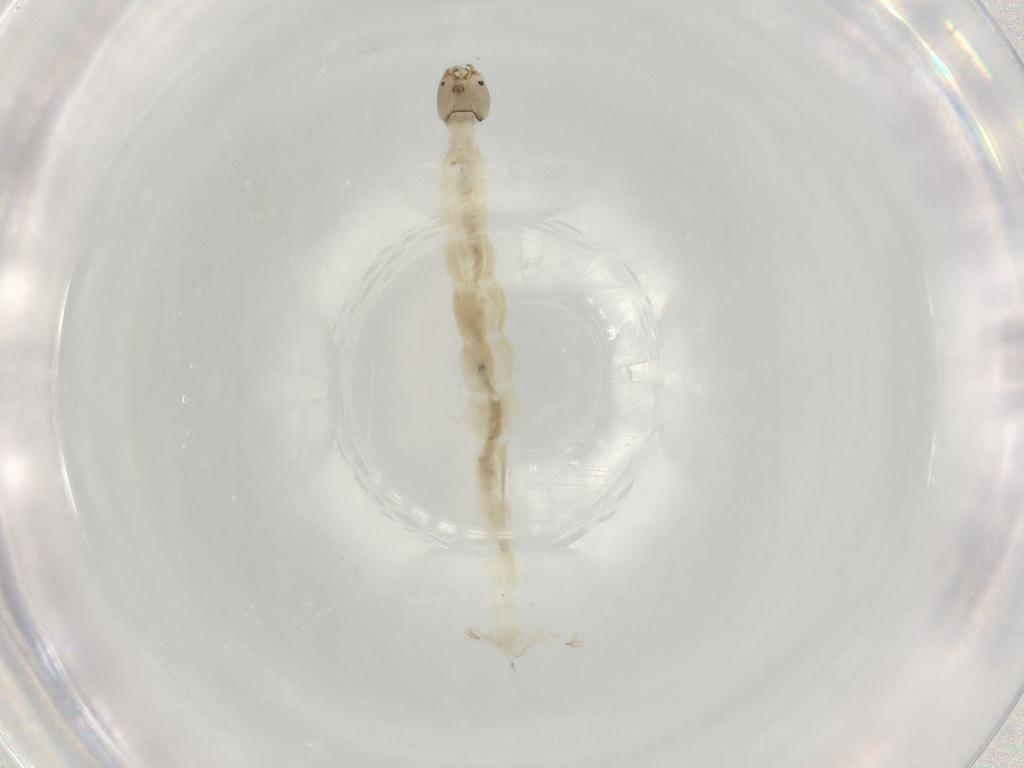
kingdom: Animalia
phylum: Arthropoda
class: Insecta
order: Diptera
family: Chironomidae
